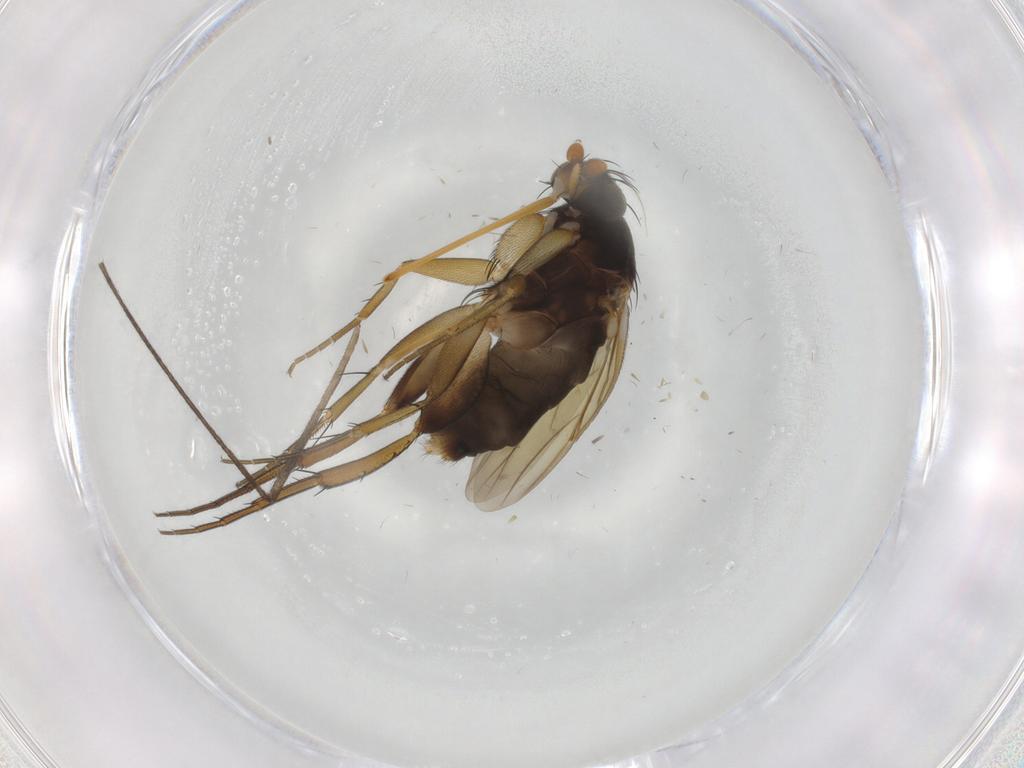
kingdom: Animalia
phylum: Arthropoda
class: Insecta
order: Diptera
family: Phoridae
